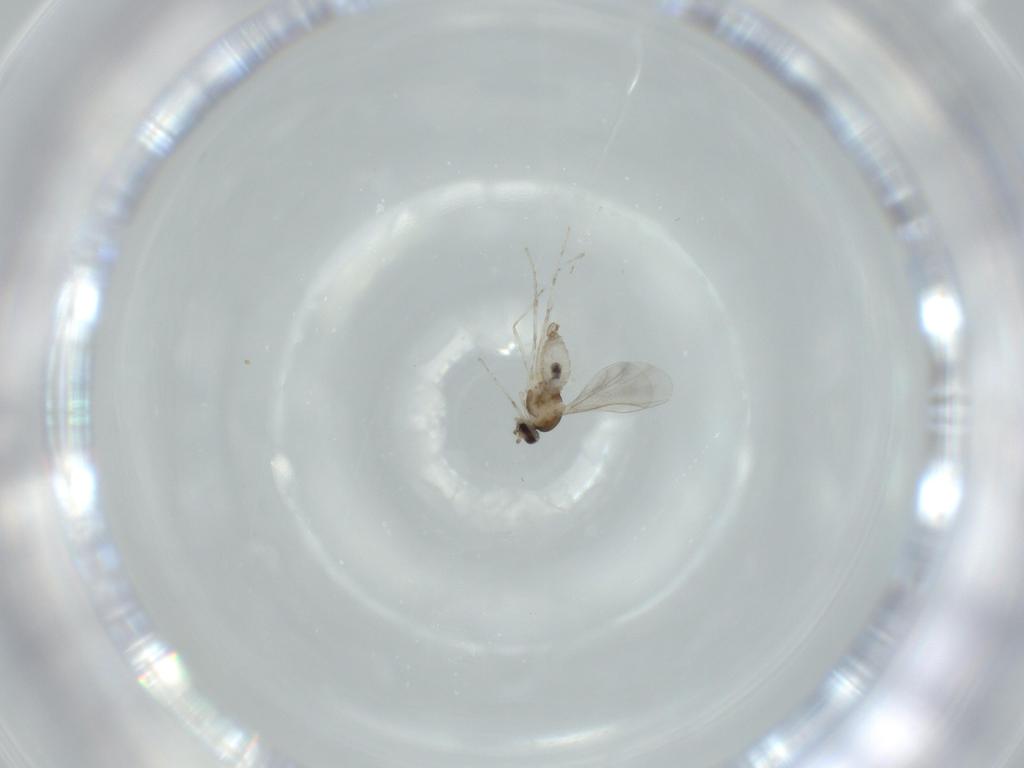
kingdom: Animalia
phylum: Arthropoda
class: Insecta
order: Diptera
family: Cecidomyiidae
